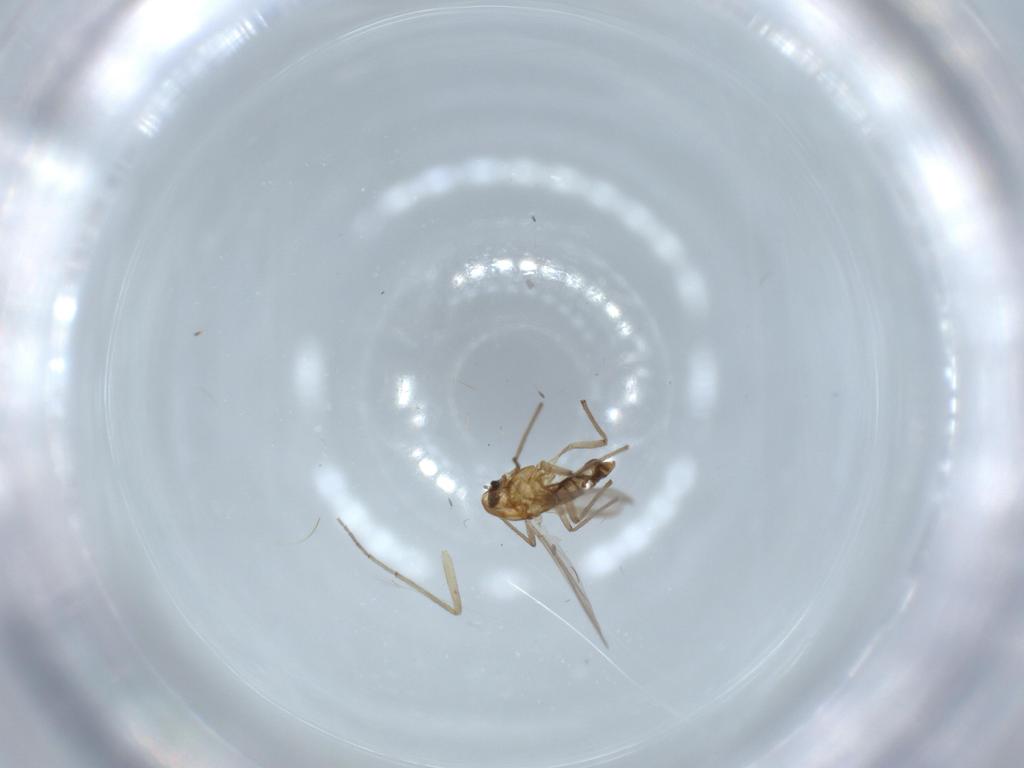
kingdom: Animalia
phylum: Arthropoda
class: Insecta
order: Diptera
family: Chironomidae
